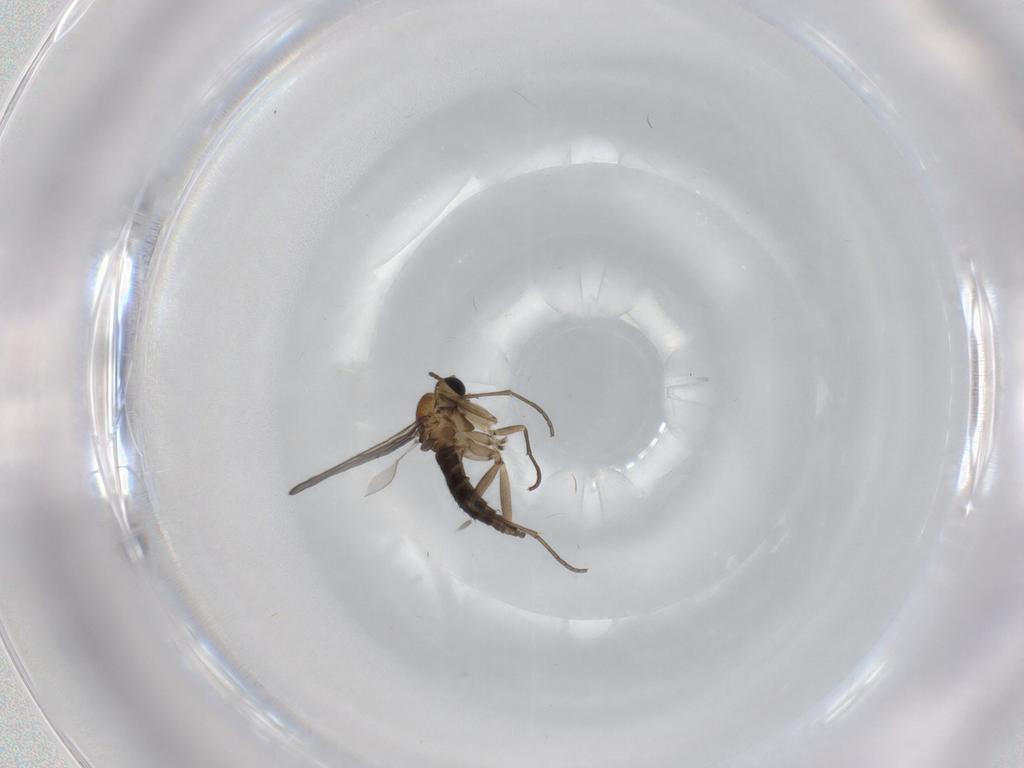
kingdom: Animalia
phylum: Arthropoda
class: Insecta
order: Diptera
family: Sciaridae
